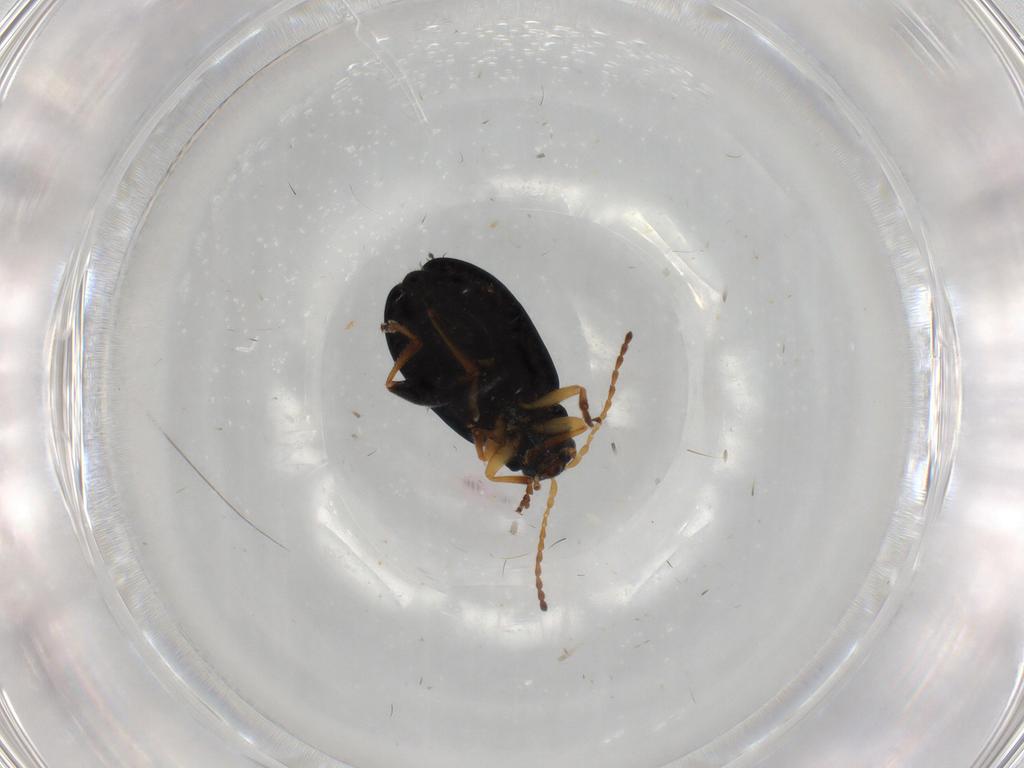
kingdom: Animalia
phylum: Arthropoda
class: Insecta
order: Coleoptera
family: Chrysomelidae
